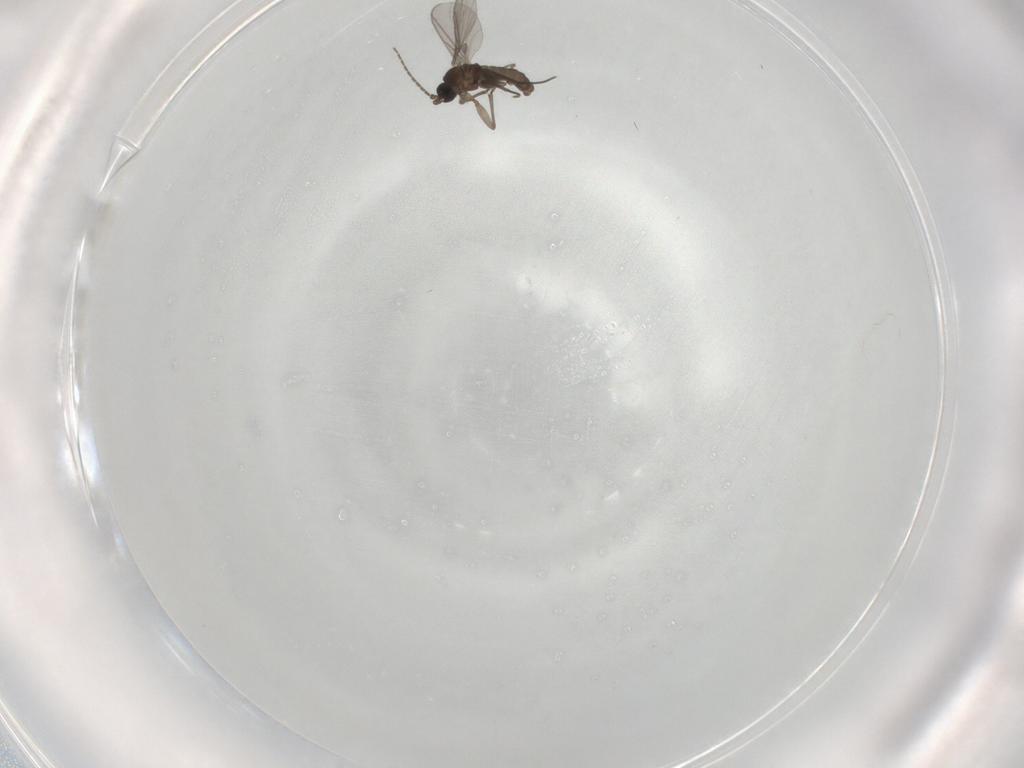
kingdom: Animalia
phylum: Arthropoda
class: Insecta
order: Diptera
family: Sciaridae
